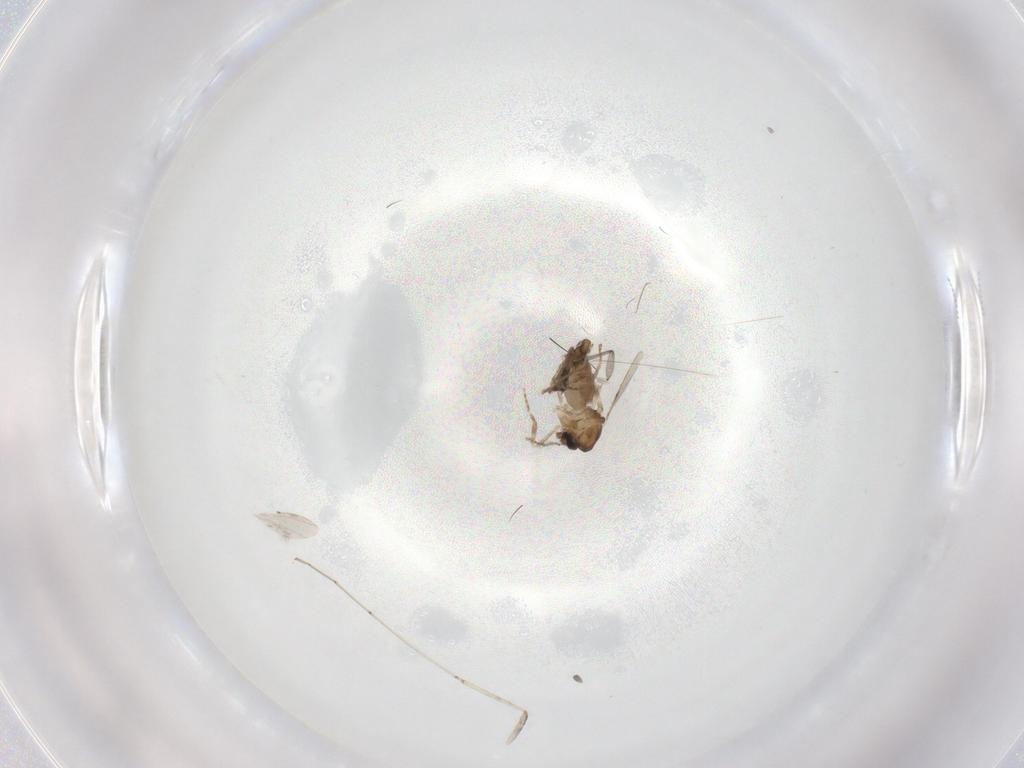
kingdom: Animalia
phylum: Arthropoda
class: Insecta
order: Diptera
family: Ceratopogonidae
